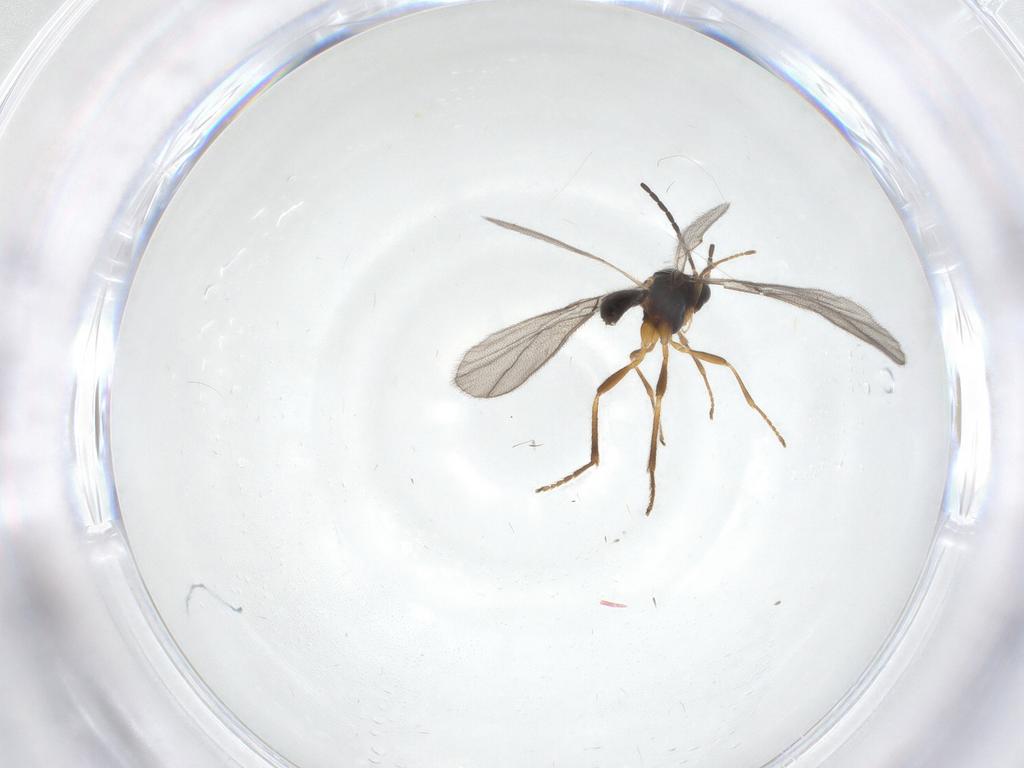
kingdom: Animalia
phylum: Arthropoda
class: Insecta
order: Hymenoptera
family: Braconidae
